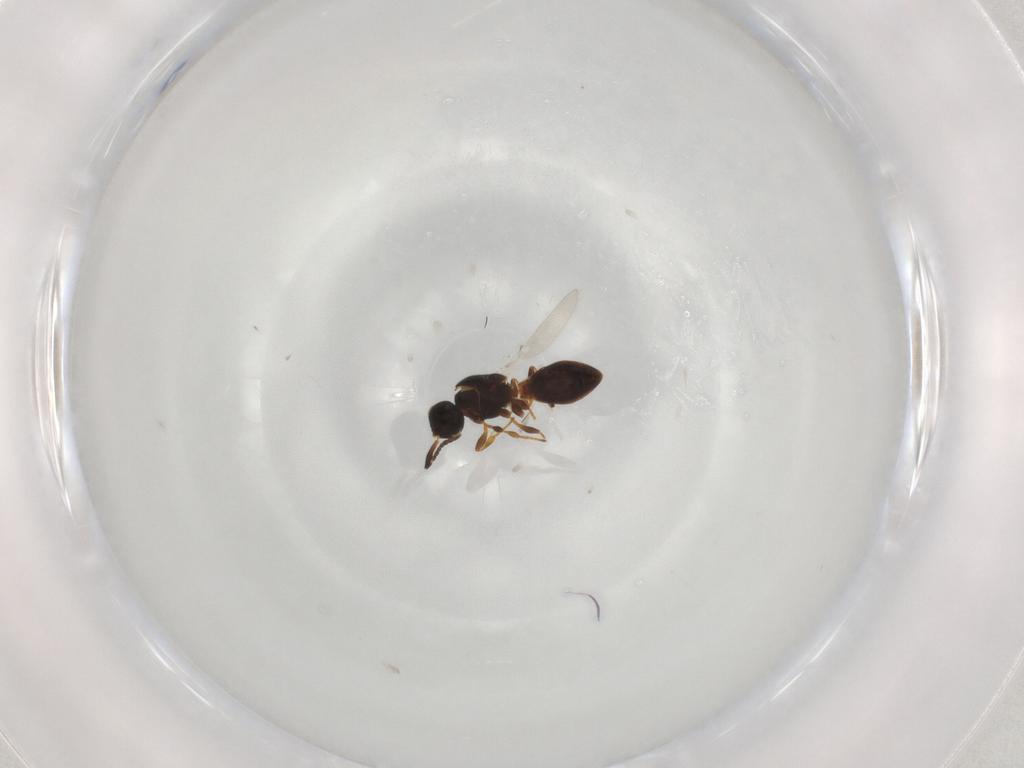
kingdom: Animalia
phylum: Arthropoda
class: Insecta
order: Hymenoptera
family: Platygastridae
